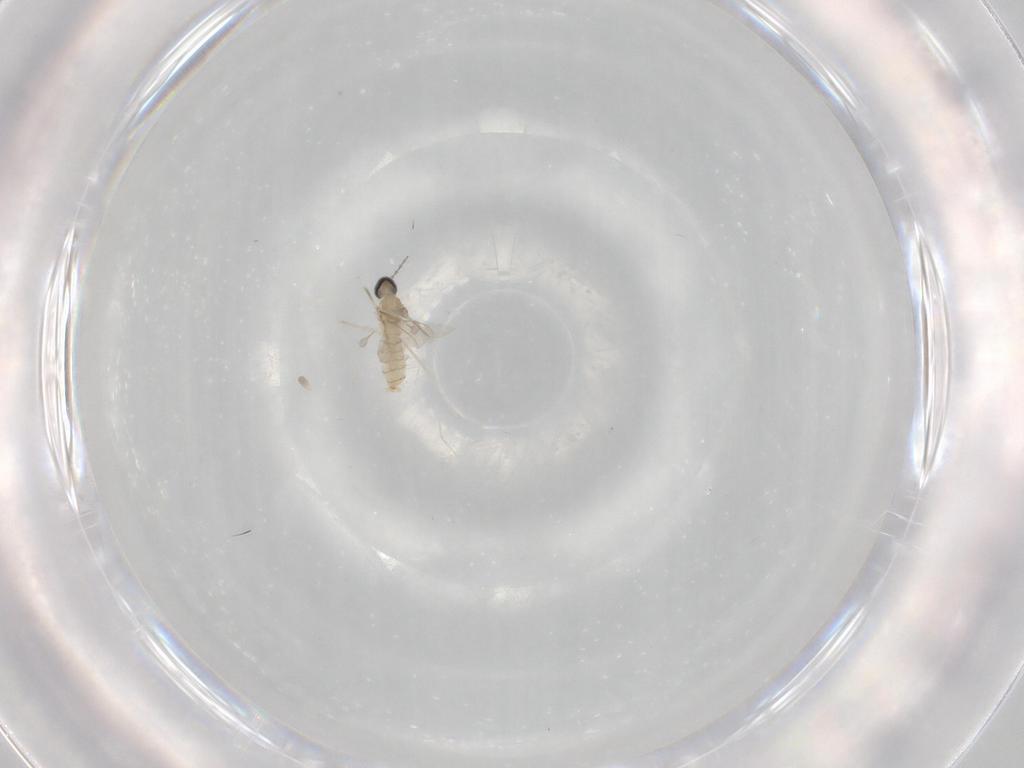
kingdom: Animalia
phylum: Arthropoda
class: Insecta
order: Diptera
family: Cecidomyiidae
